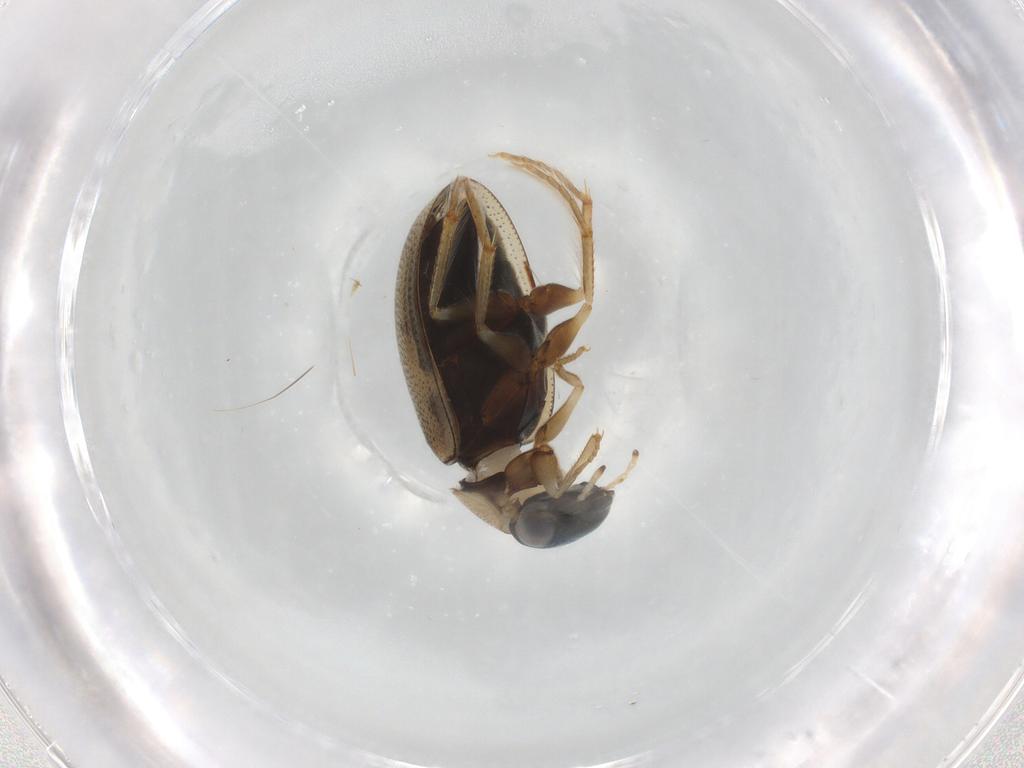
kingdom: Animalia
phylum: Arthropoda
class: Insecta
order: Coleoptera
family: Hydrophilidae
